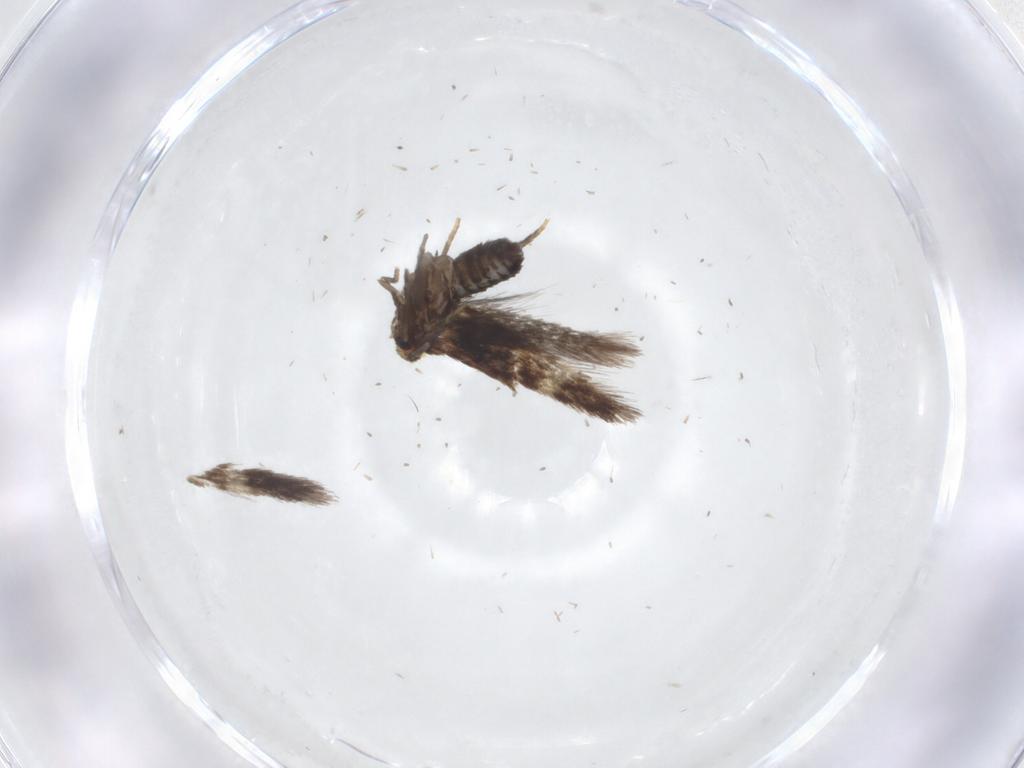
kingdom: Animalia
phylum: Arthropoda
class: Insecta
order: Lepidoptera
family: Nepticulidae
